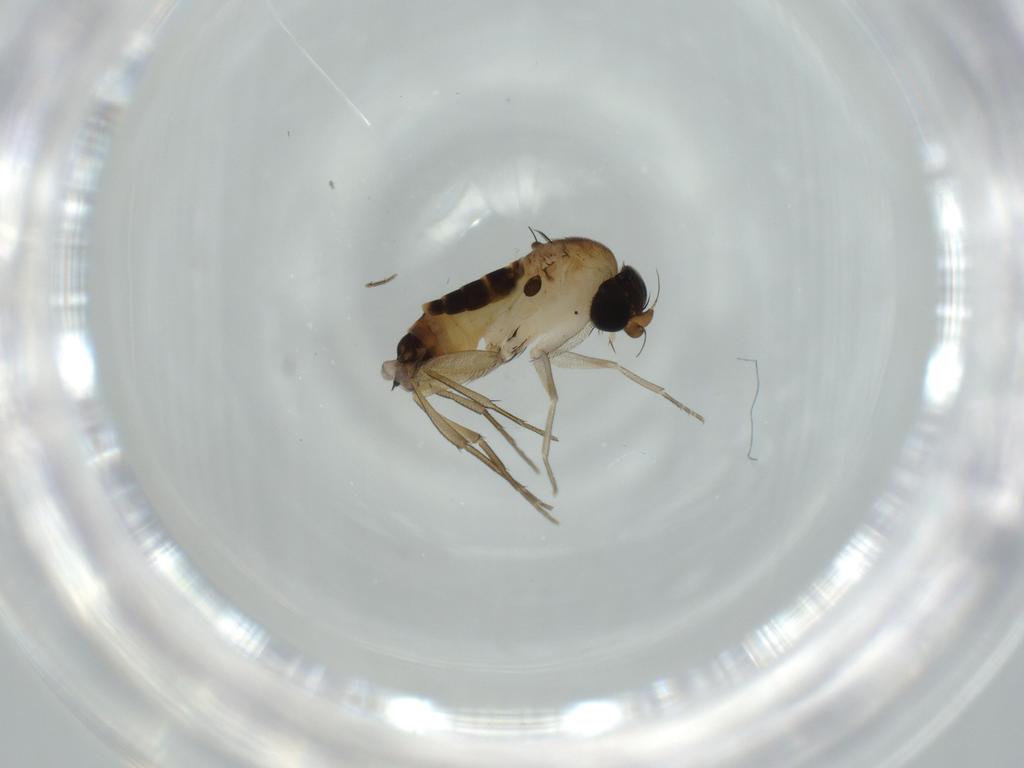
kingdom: Animalia
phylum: Arthropoda
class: Insecta
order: Diptera
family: Phoridae
